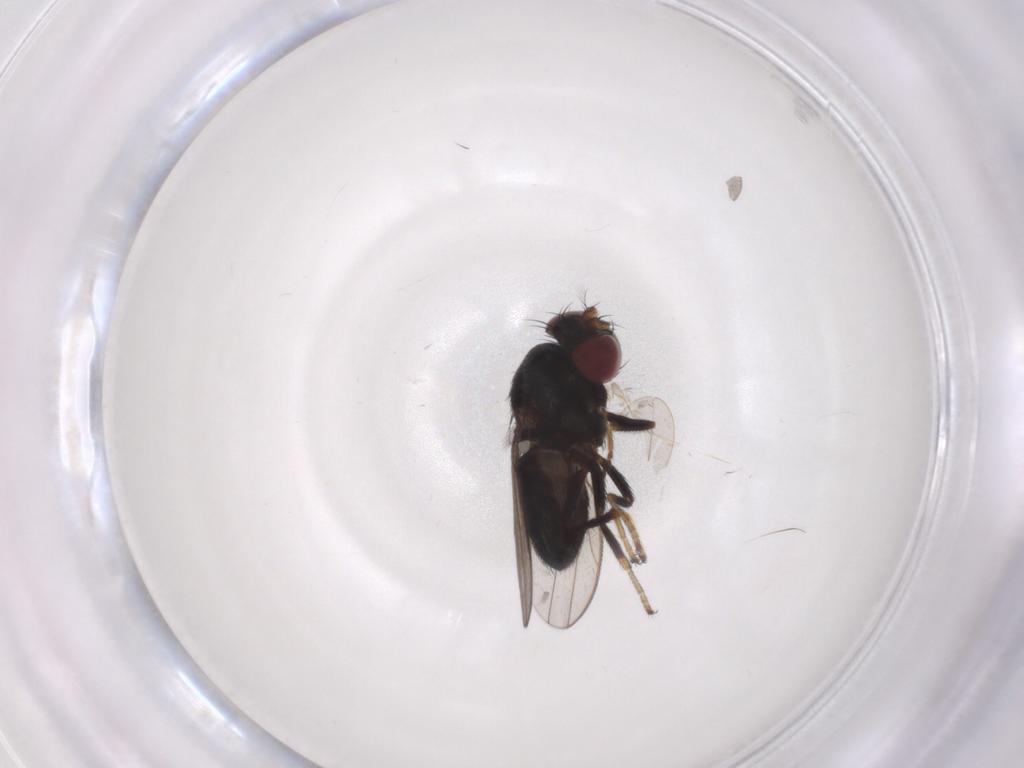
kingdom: Animalia
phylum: Arthropoda
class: Insecta
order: Diptera
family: Ephydridae
